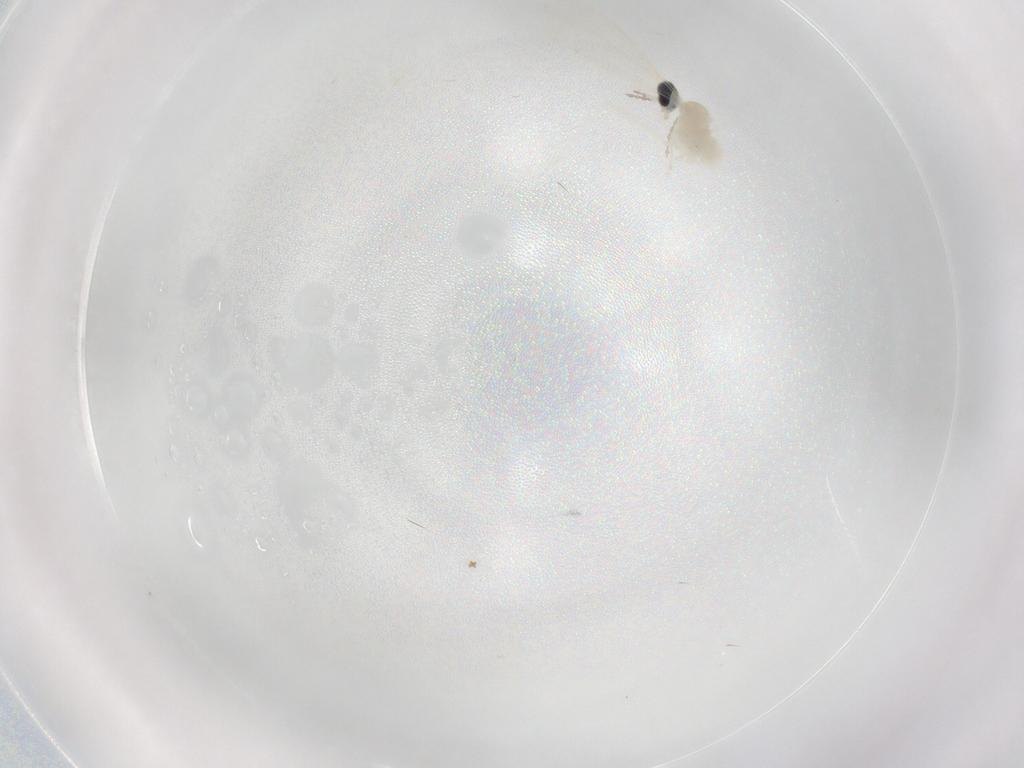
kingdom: Animalia
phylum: Arthropoda
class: Insecta
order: Diptera
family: Cecidomyiidae
